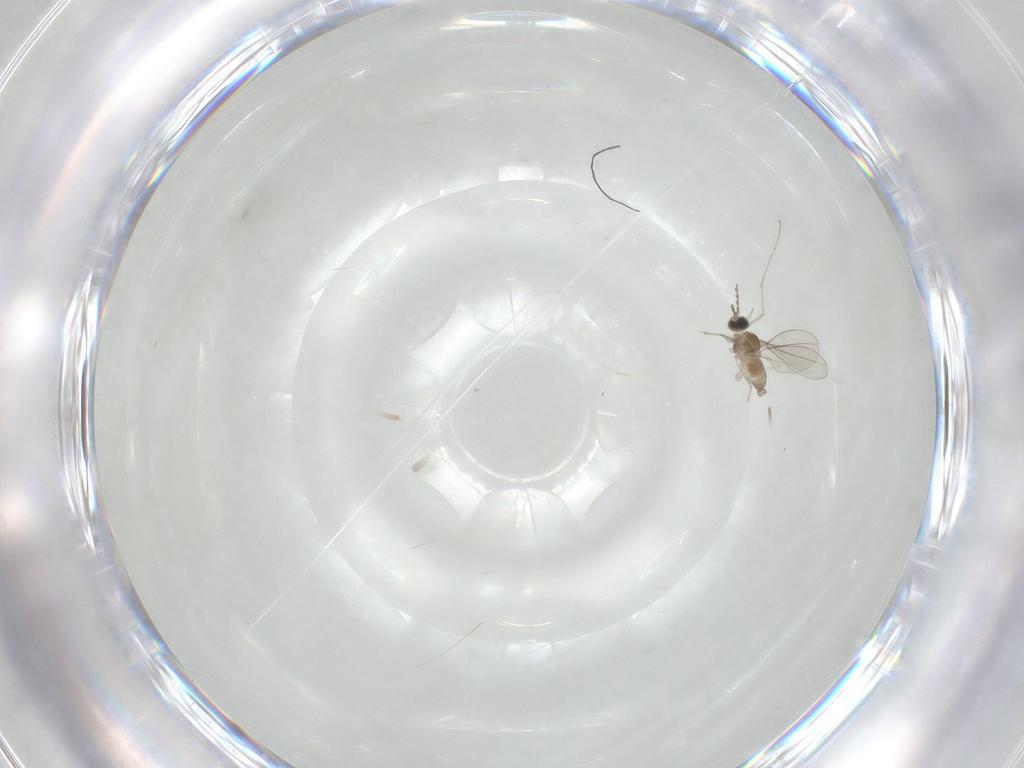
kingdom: Animalia
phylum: Arthropoda
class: Insecta
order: Diptera
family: Cecidomyiidae
